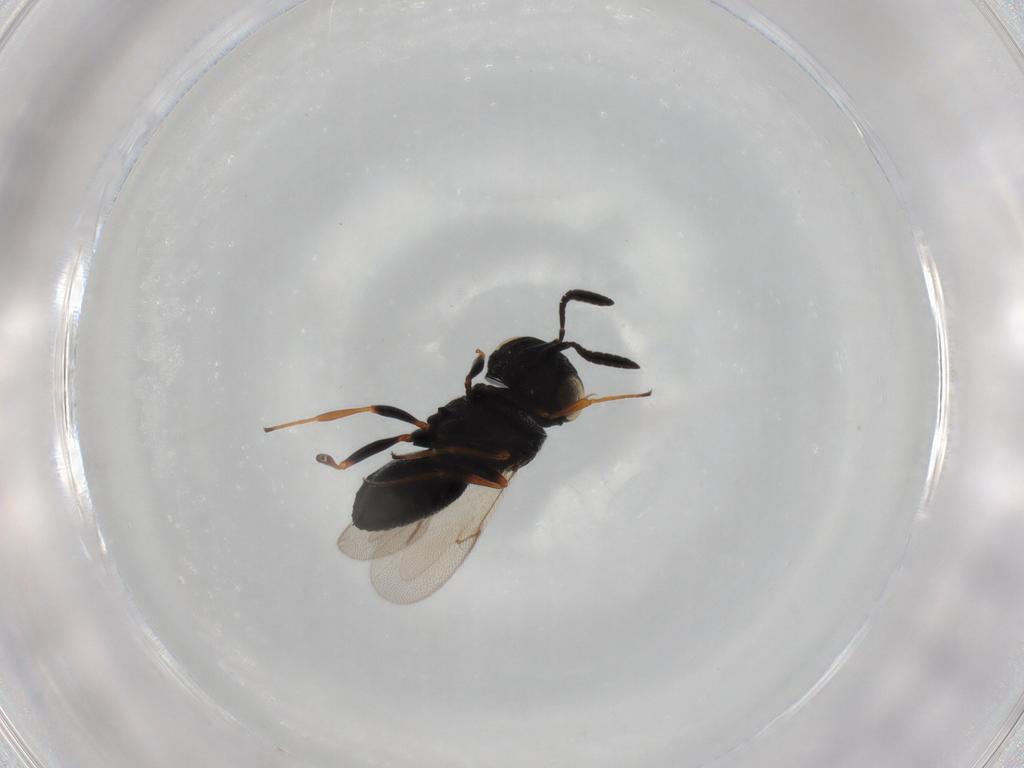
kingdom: Animalia
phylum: Arthropoda
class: Insecta
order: Hymenoptera
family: Scelionidae
